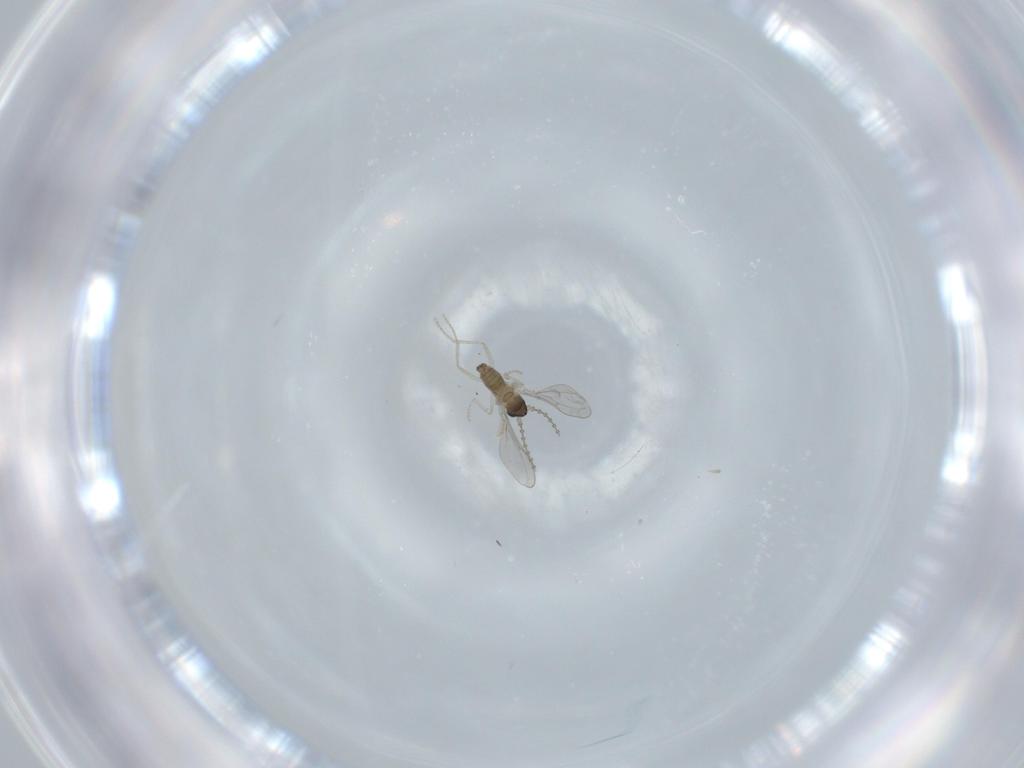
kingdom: Animalia
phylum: Arthropoda
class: Insecta
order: Diptera
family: Cecidomyiidae
